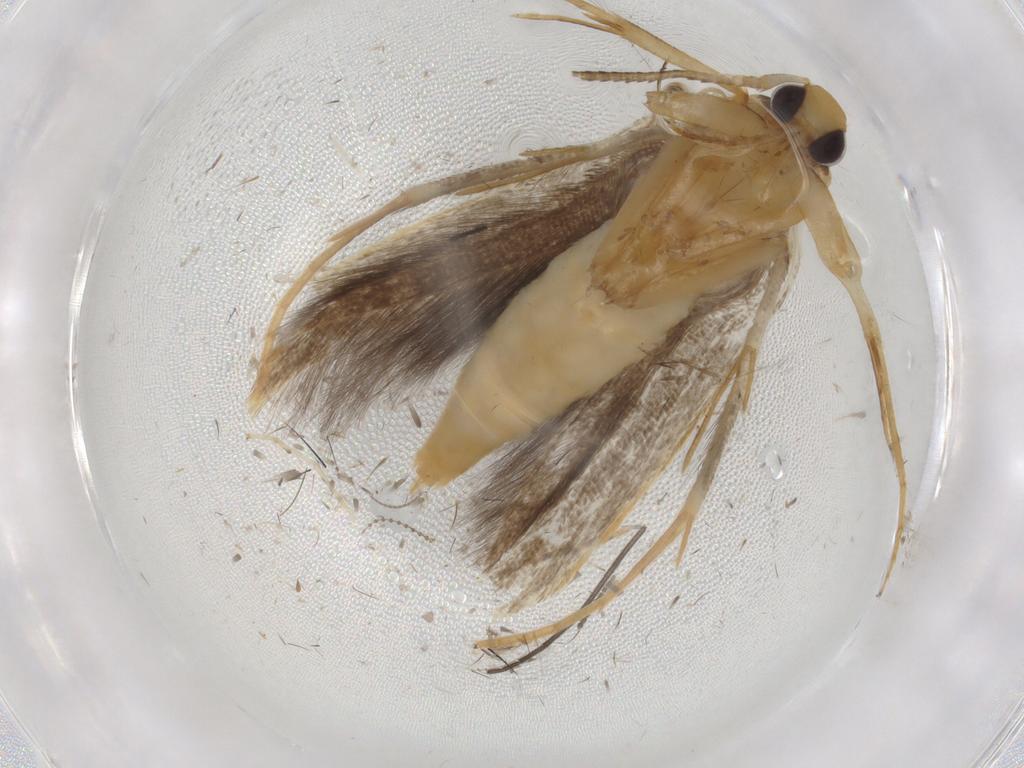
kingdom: Animalia
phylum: Arthropoda
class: Insecta
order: Lepidoptera
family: Pterolonchidae
